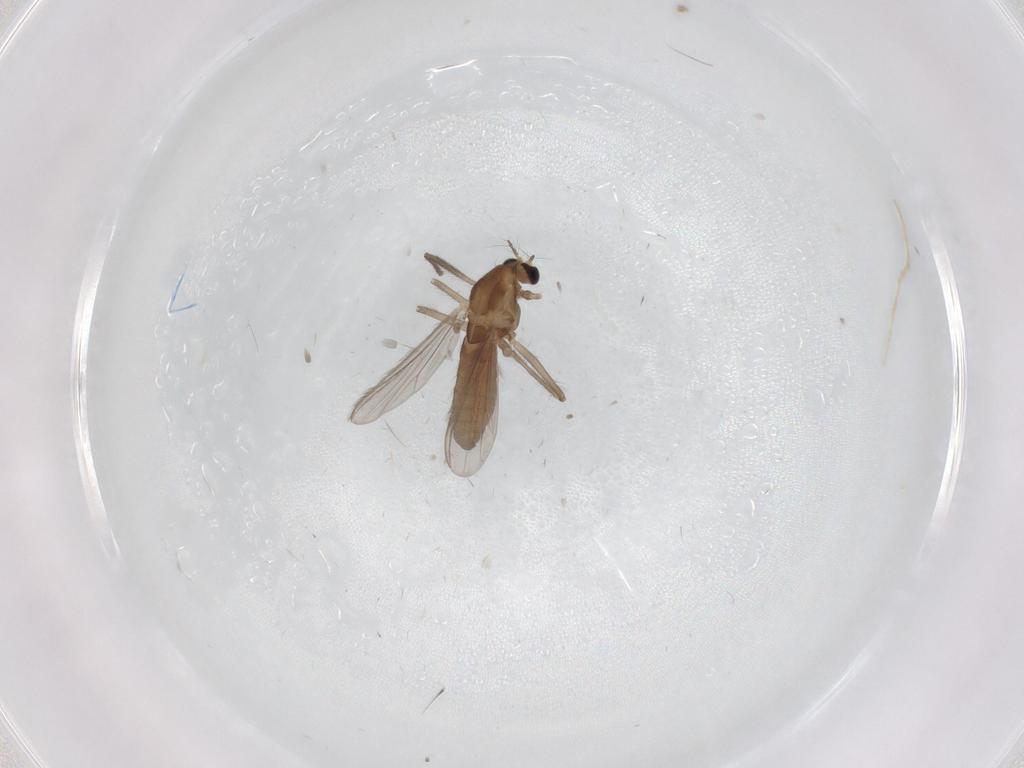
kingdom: Animalia
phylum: Arthropoda
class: Insecta
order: Diptera
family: Chironomidae
